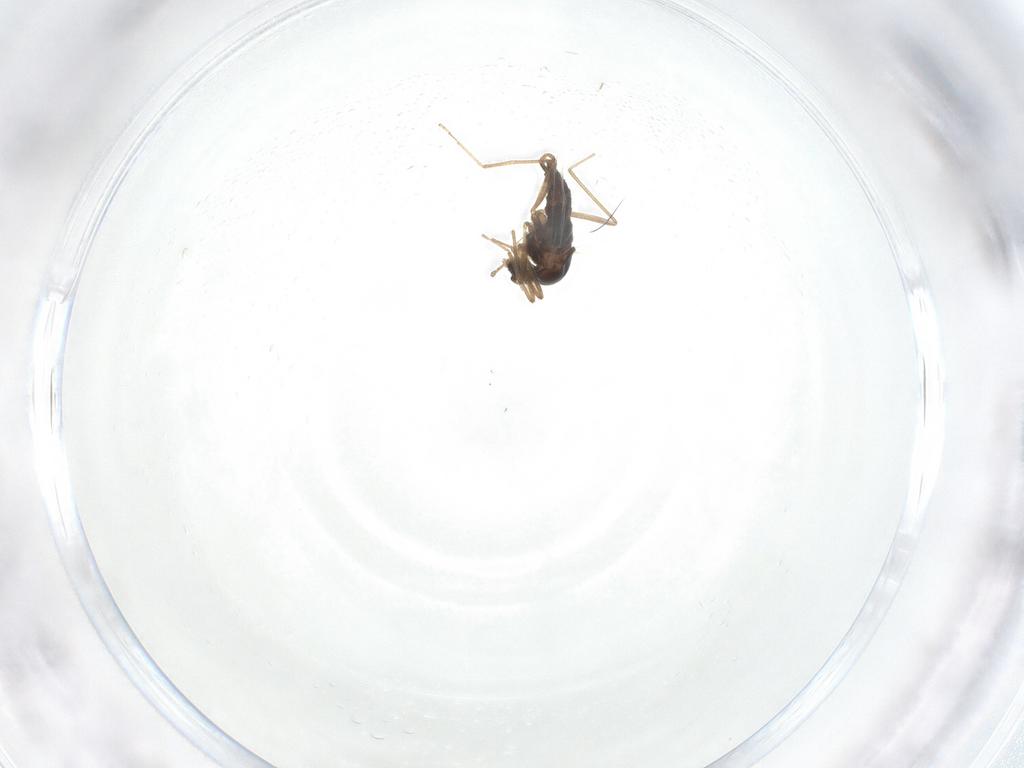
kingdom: Animalia
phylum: Arthropoda
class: Insecta
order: Diptera
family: Cecidomyiidae
